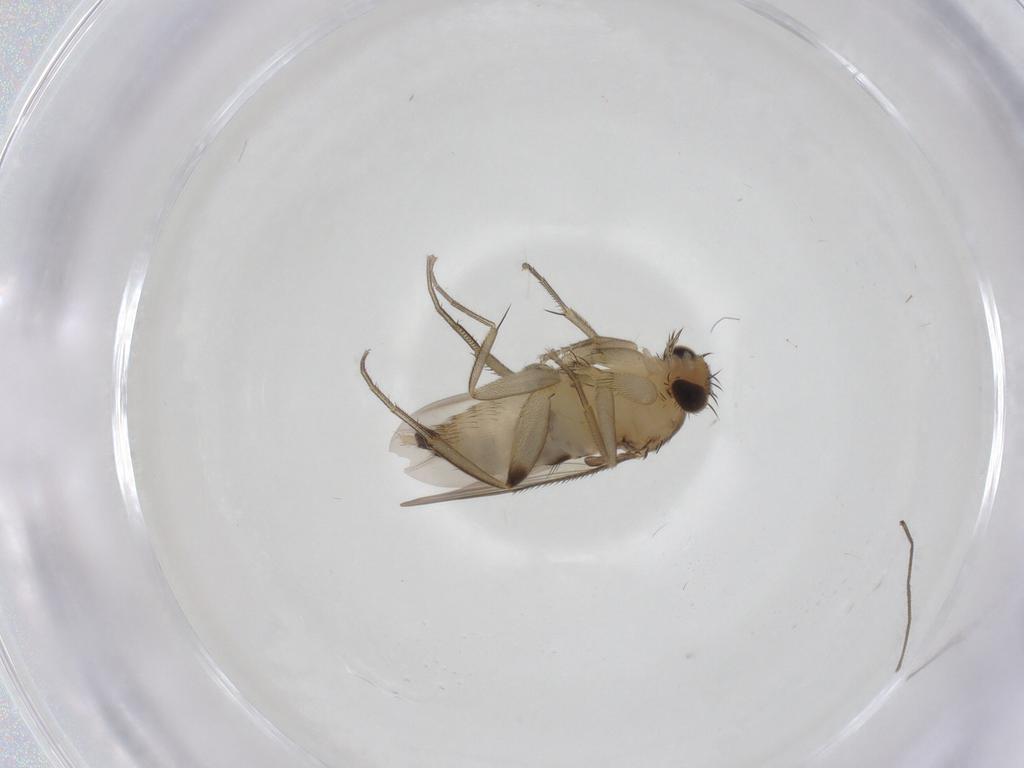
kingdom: Animalia
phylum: Arthropoda
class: Insecta
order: Diptera
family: Phoridae
